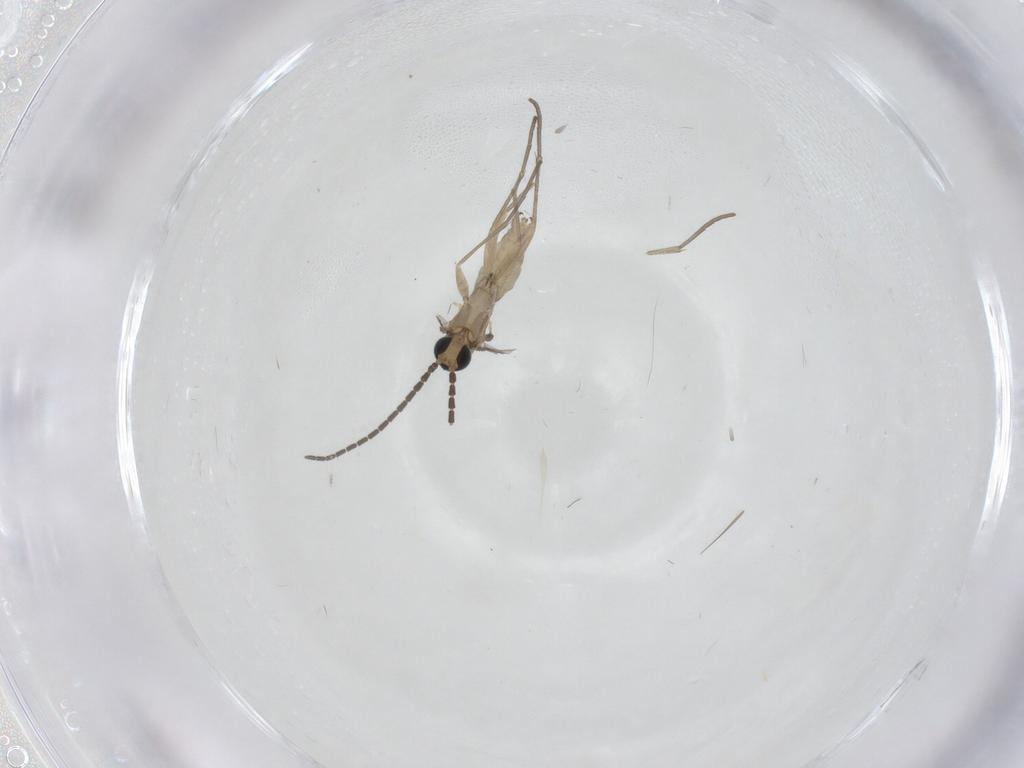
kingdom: Animalia
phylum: Arthropoda
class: Insecta
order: Diptera
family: Sciaridae
